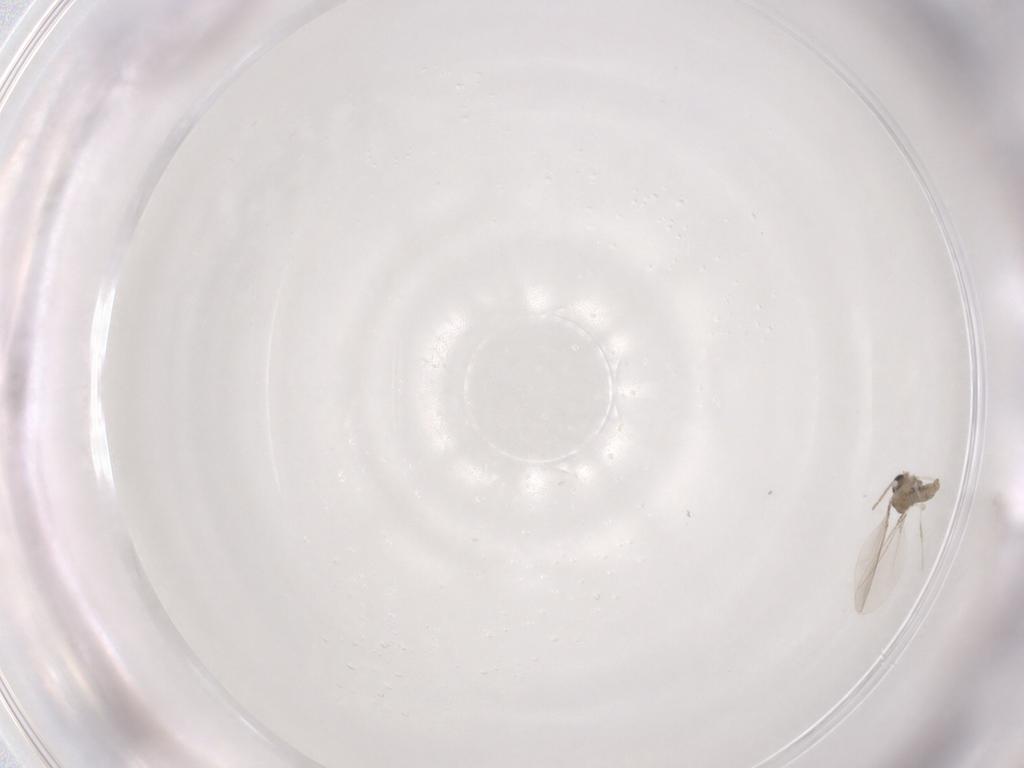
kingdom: Animalia
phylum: Arthropoda
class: Insecta
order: Diptera
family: Cecidomyiidae
